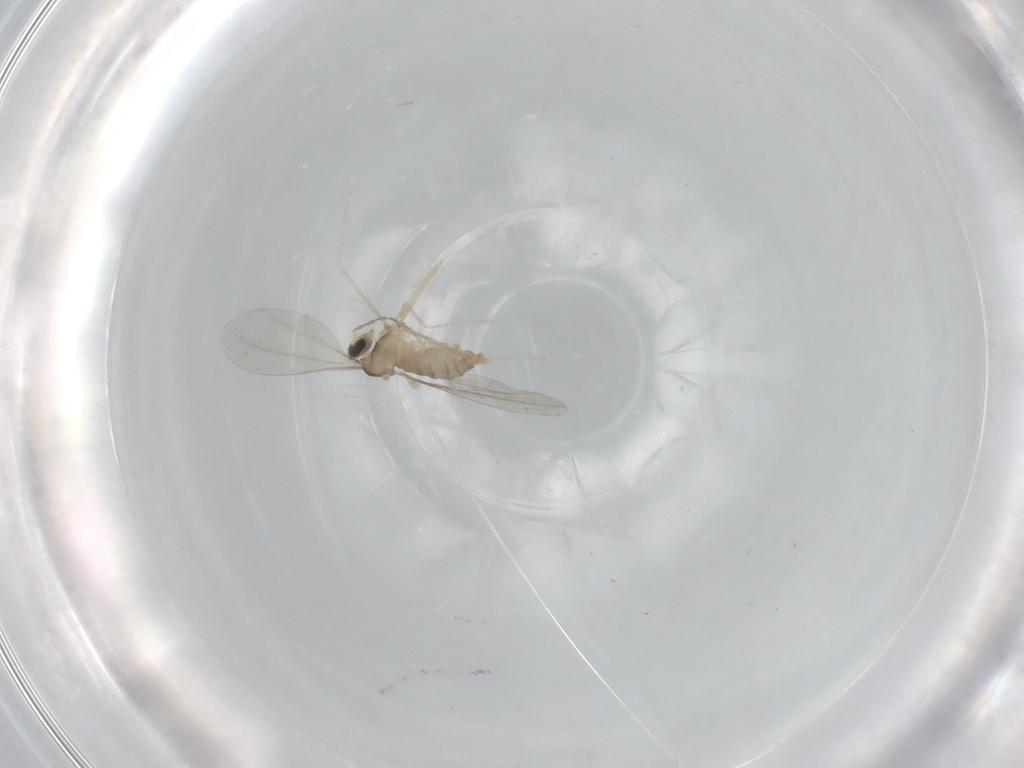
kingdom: Animalia
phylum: Arthropoda
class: Insecta
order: Diptera
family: Cecidomyiidae
